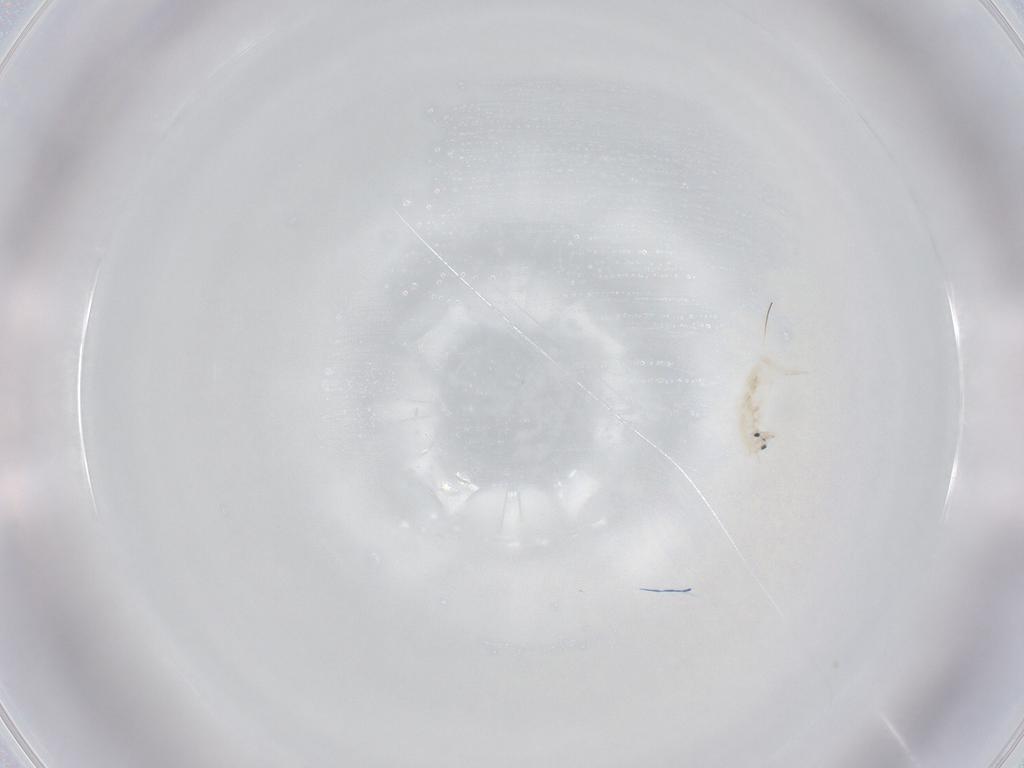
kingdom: Animalia
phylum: Arthropoda
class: Collembola
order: Entomobryomorpha
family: Entomobryidae
